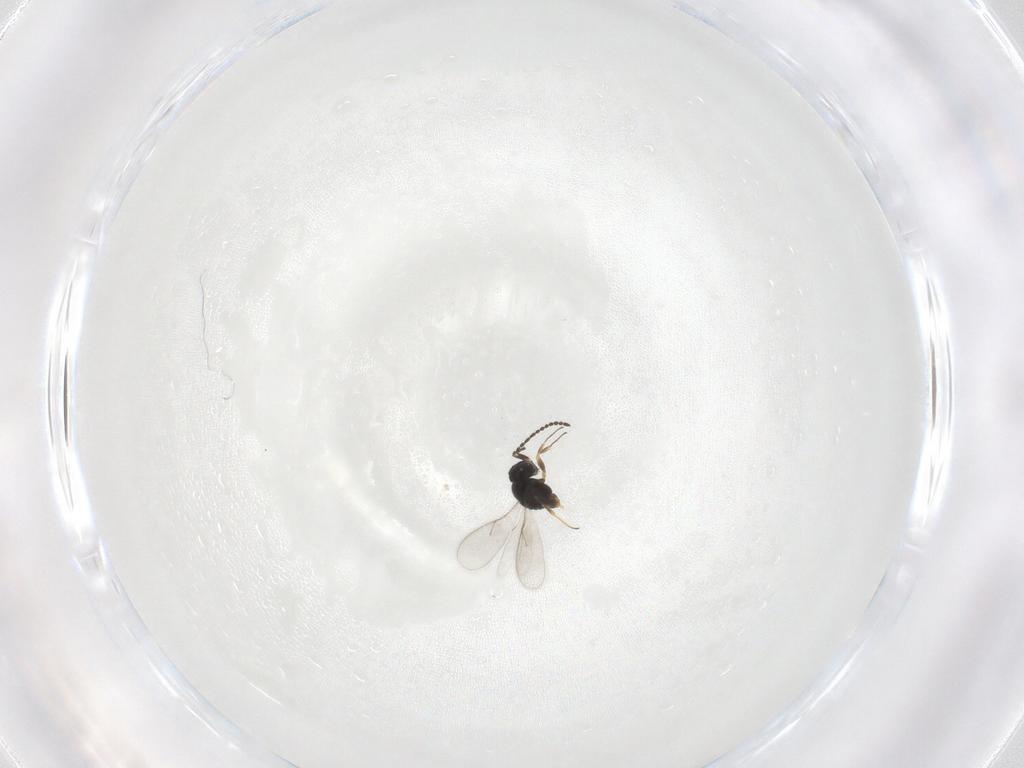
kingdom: Animalia
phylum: Arthropoda
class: Insecta
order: Hymenoptera
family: Scelionidae
